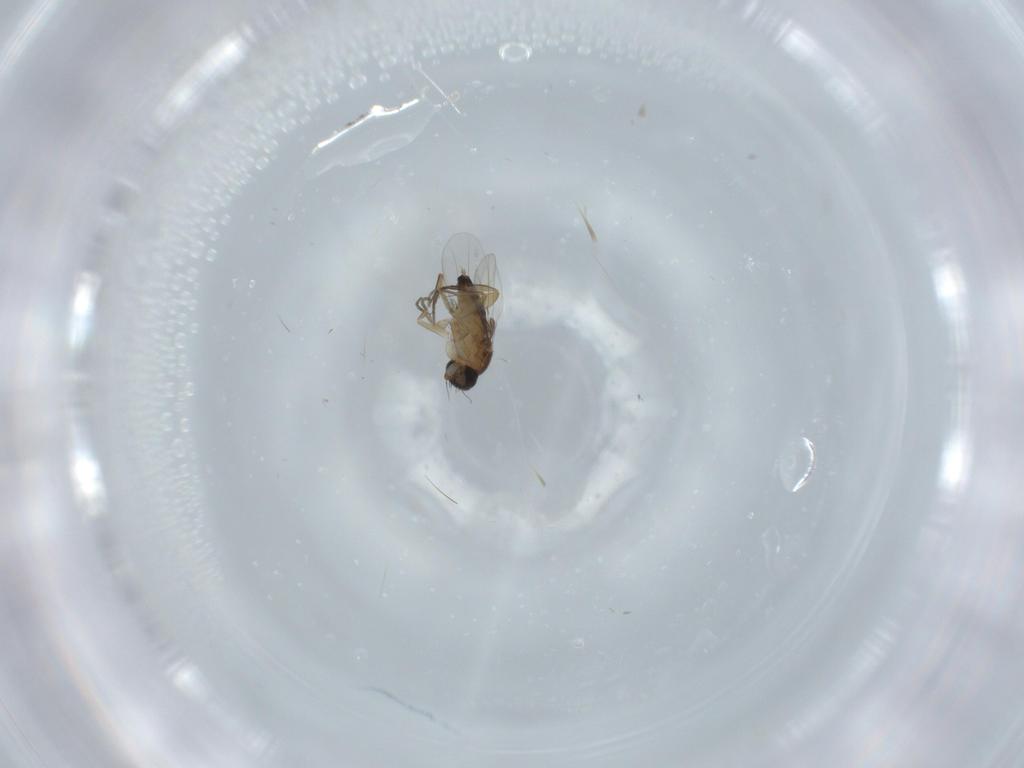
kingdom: Animalia
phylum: Arthropoda
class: Insecta
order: Diptera
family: Phoridae
